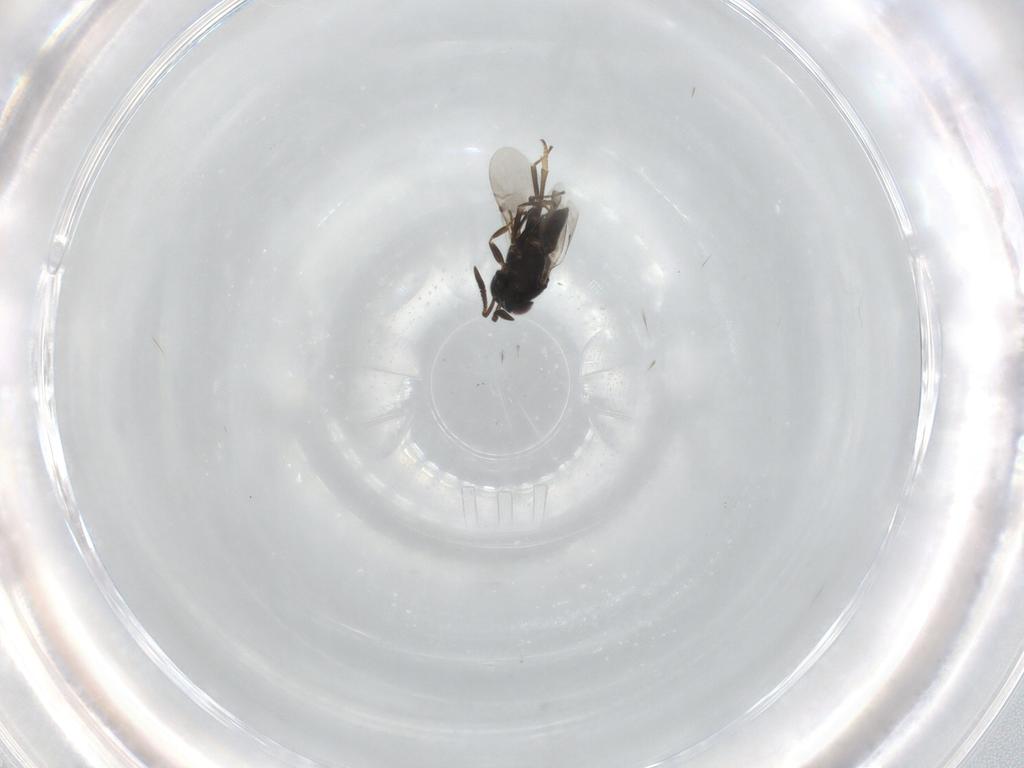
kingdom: Animalia
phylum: Arthropoda
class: Insecta
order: Hymenoptera
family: Encyrtidae
